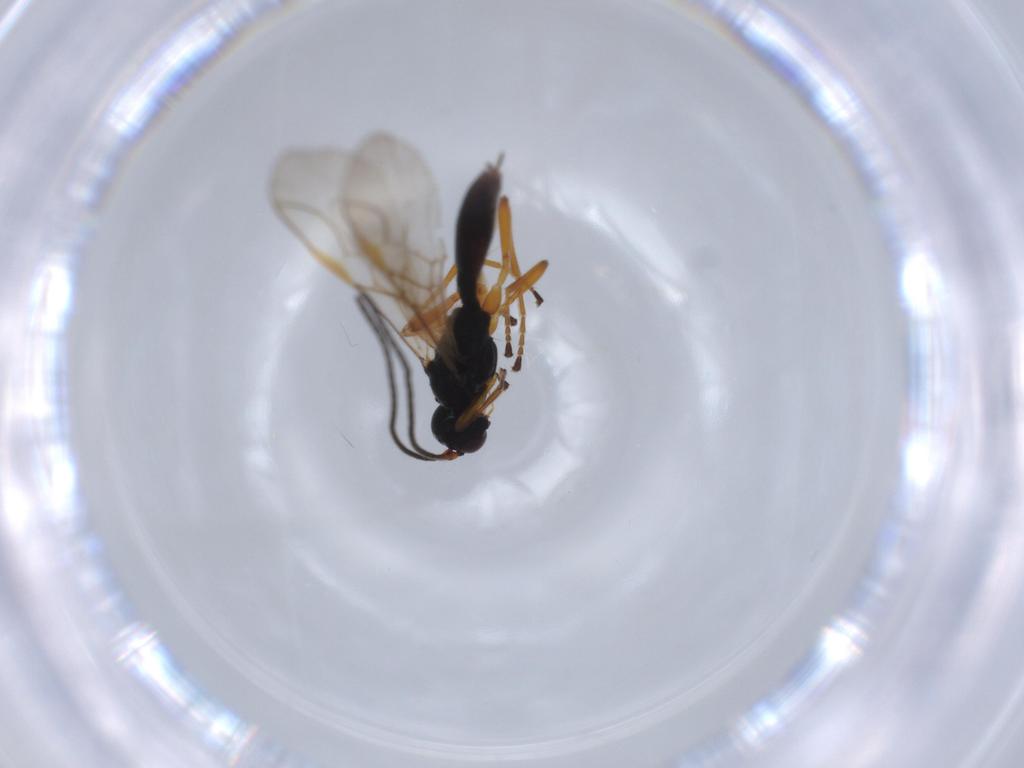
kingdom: Animalia
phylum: Arthropoda
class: Insecta
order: Hymenoptera
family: Braconidae
